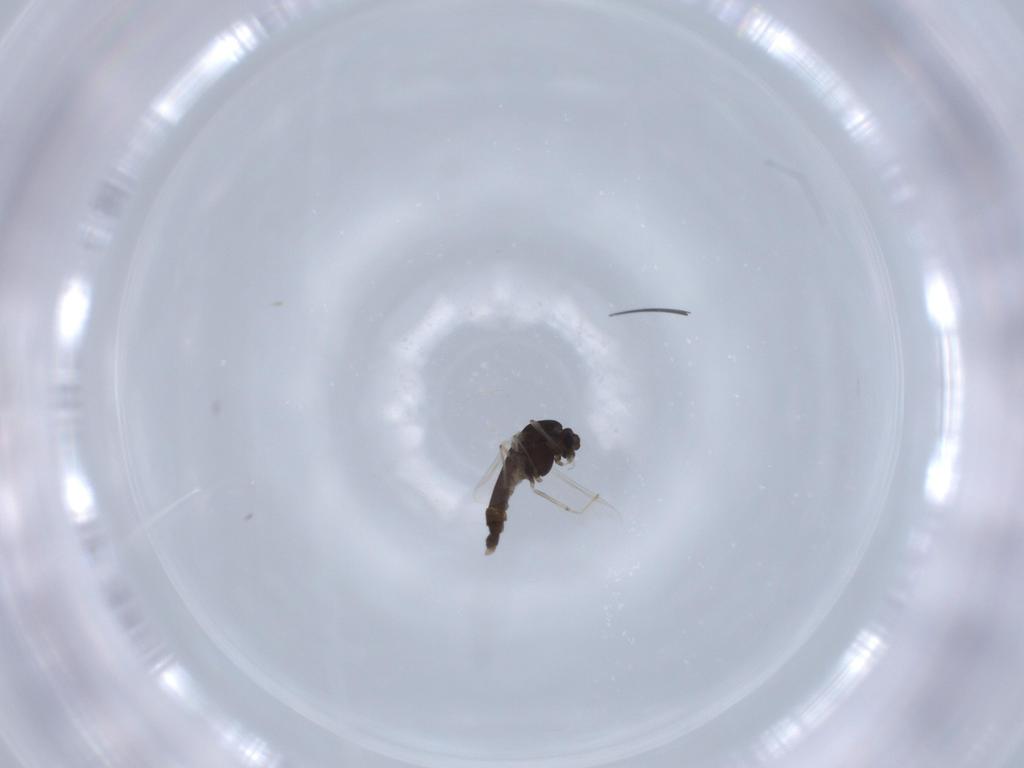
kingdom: Animalia
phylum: Arthropoda
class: Insecta
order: Diptera
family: Chironomidae
